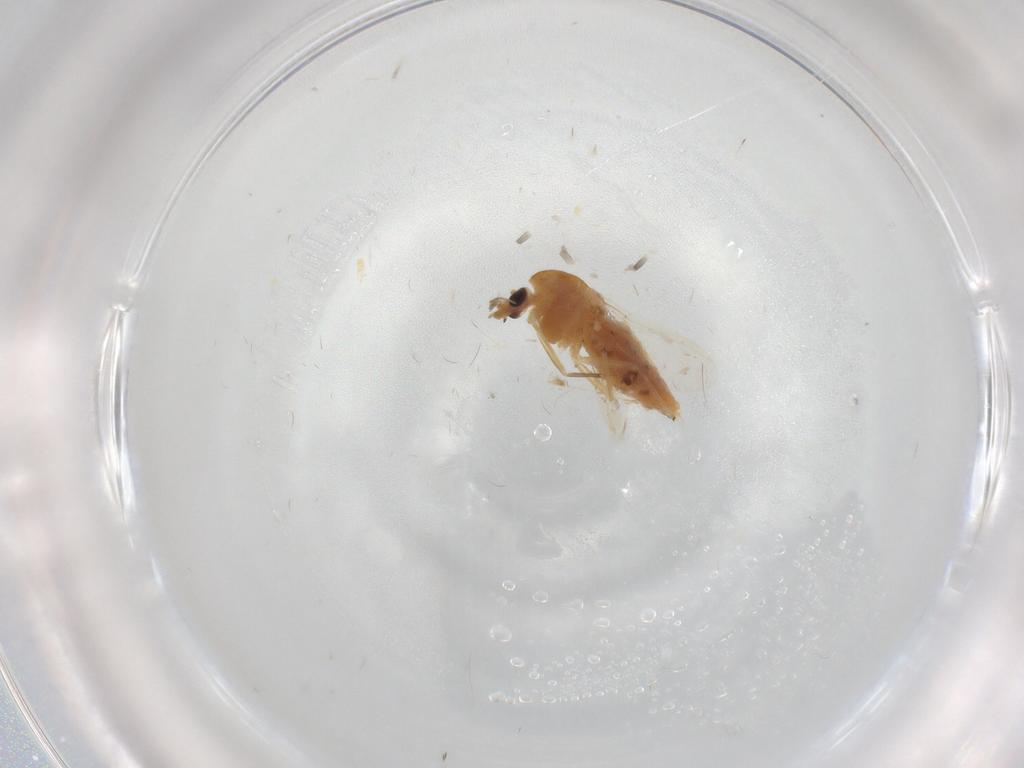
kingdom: Animalia
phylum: Arthropoda
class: Insecta
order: Diptera
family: Chironomidae
